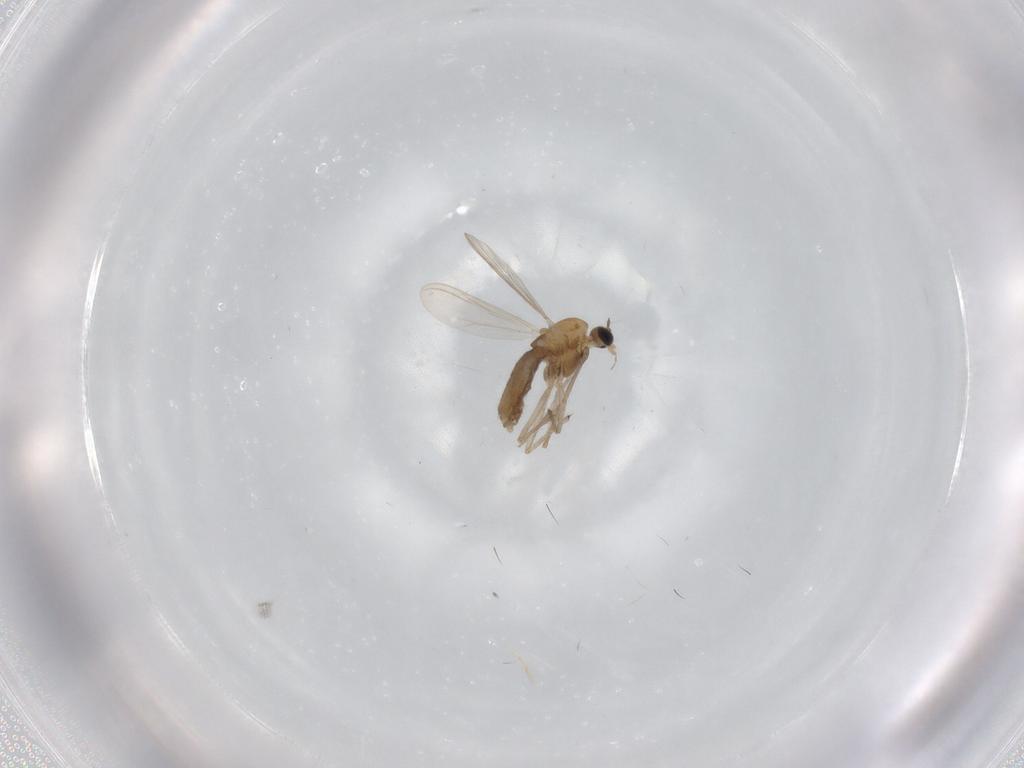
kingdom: Animalia
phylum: Arthropoda
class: Insecta
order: Diptera
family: Chironomidae
